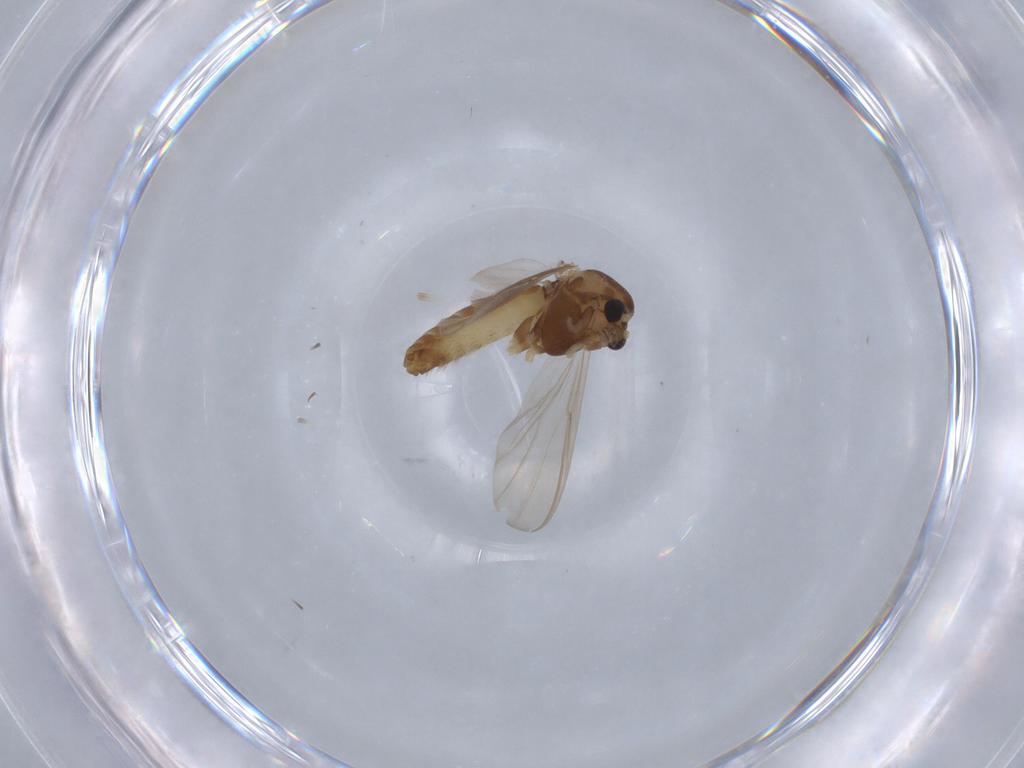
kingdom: Animalia
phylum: Arthropoda
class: Insecta
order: Diptera
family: Chironomidae
